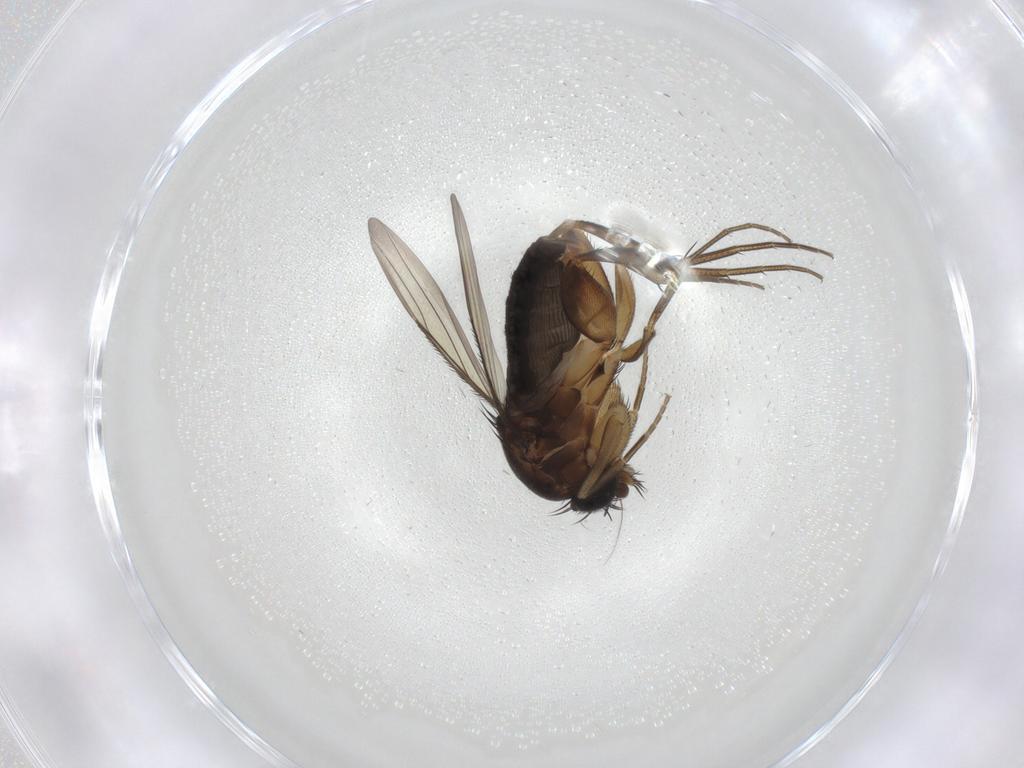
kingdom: Animalia
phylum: Arthropoda
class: Insecta
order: Diptera
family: Phoridae
